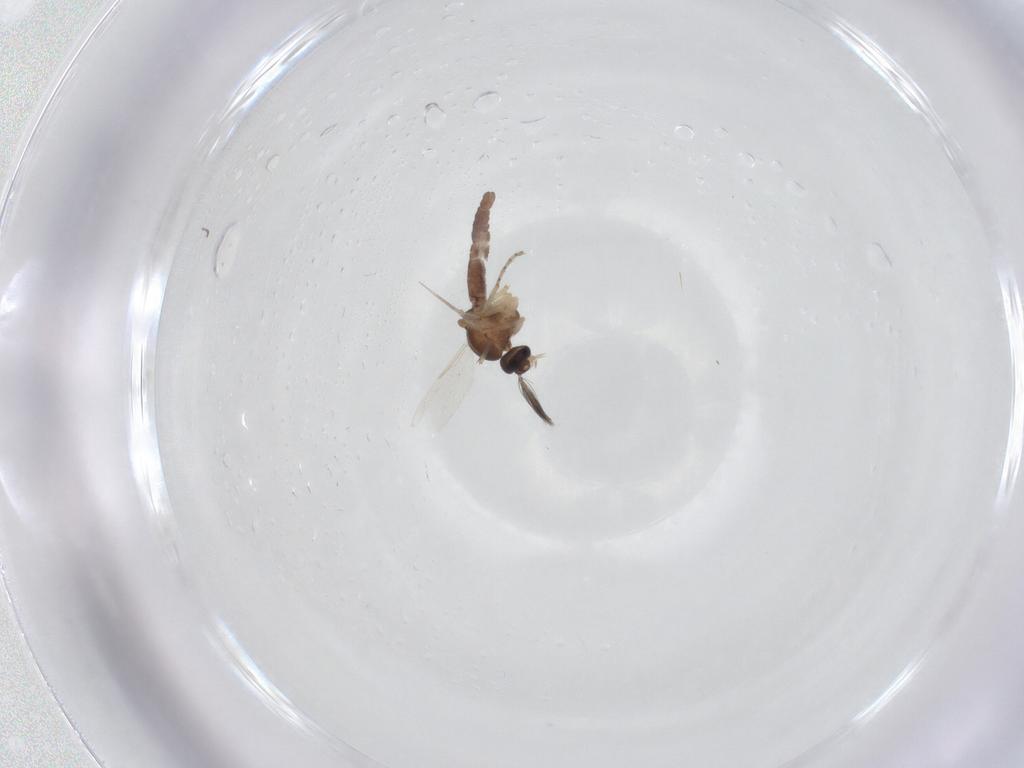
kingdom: Animalia
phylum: Arthropoda
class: Insecta
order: Diptera
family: Ceratopogonidae
